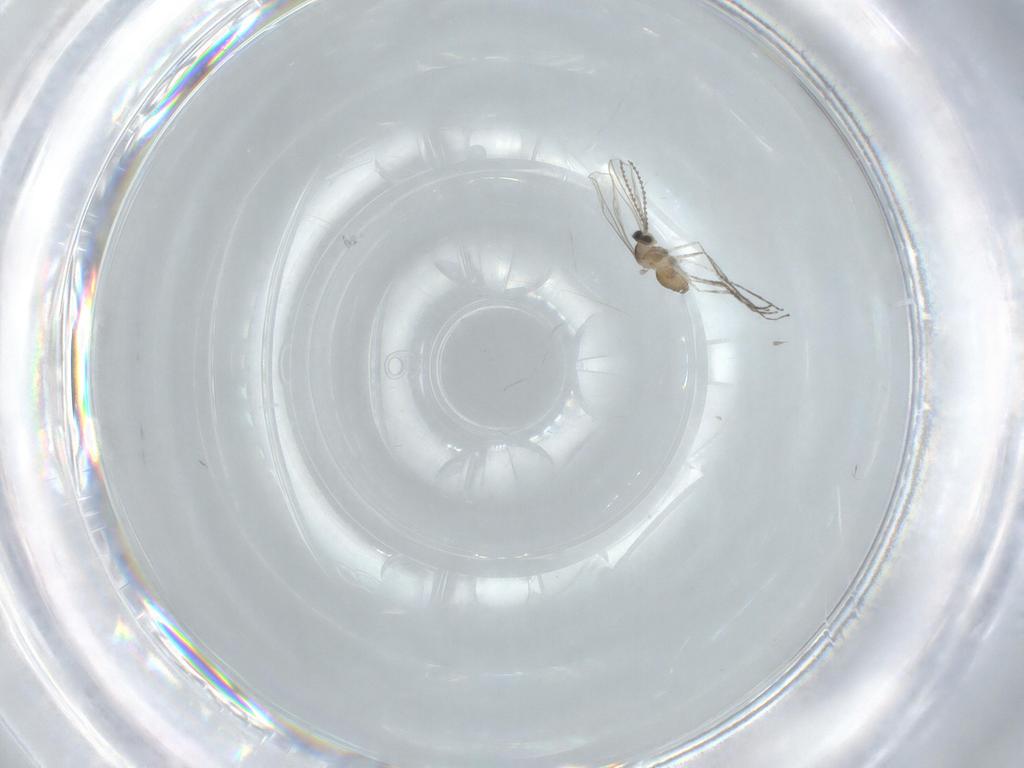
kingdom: Animalia
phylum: Arthropoda
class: Insecta
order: Diptera
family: Cecidomyiidae
